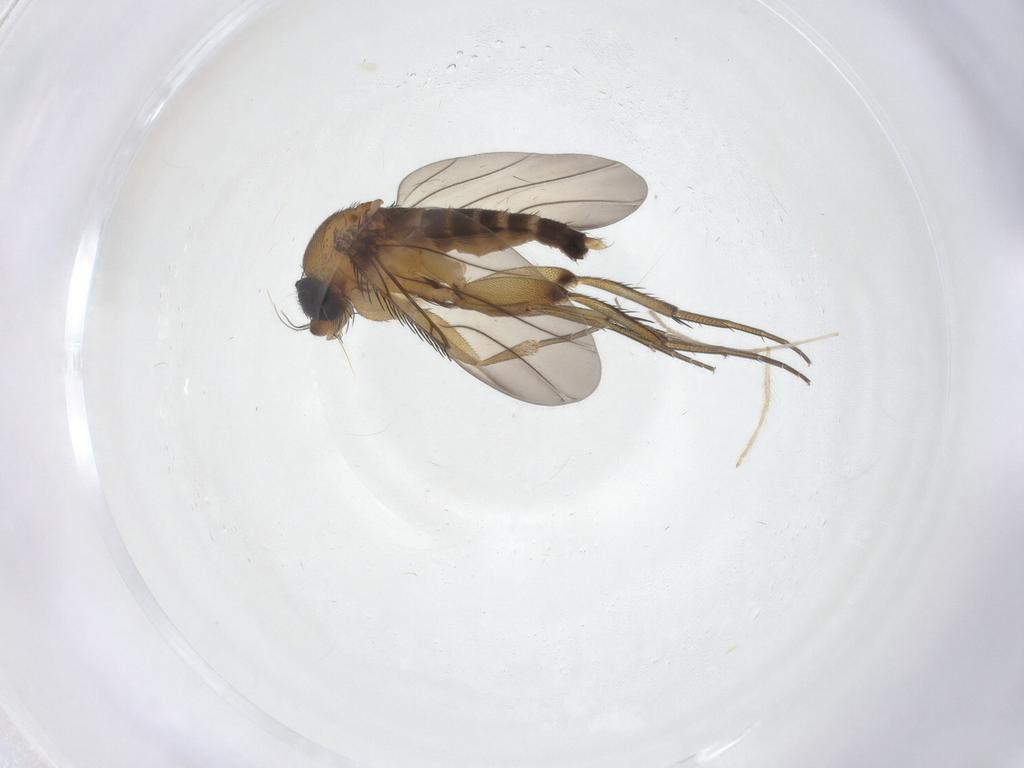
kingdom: Animalia
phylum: Arthropoda
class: Insecta
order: Diptera
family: Phoridae
